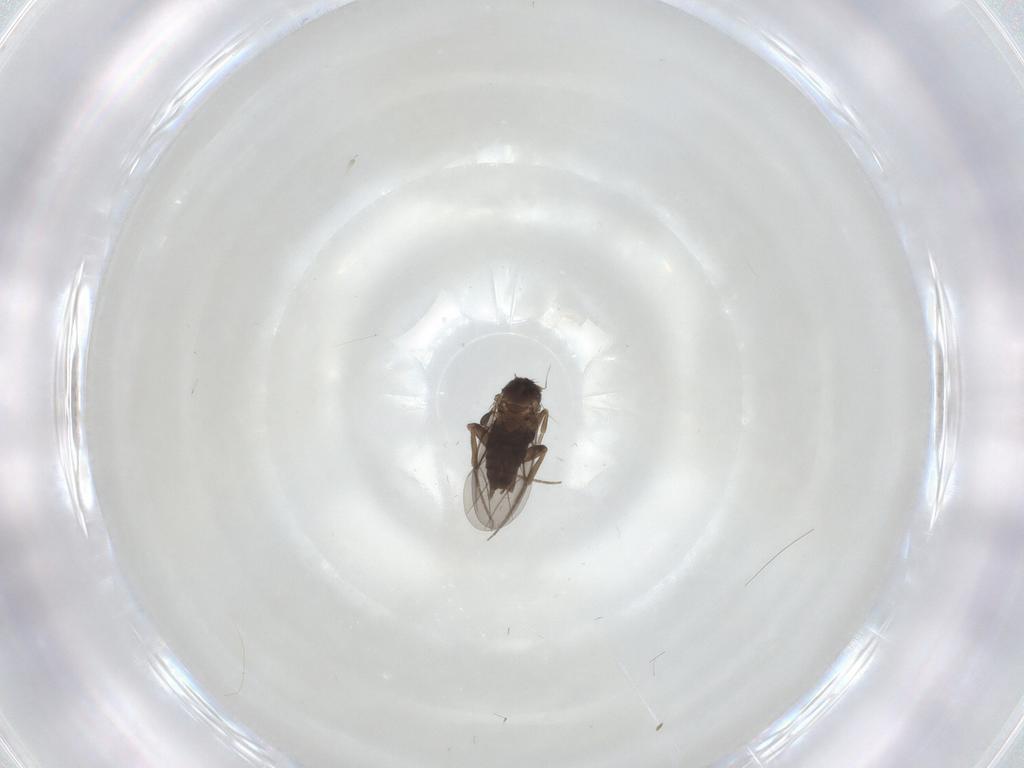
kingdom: Animalia
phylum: Arthropoda
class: Insecta
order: Diptera
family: Phoridae
